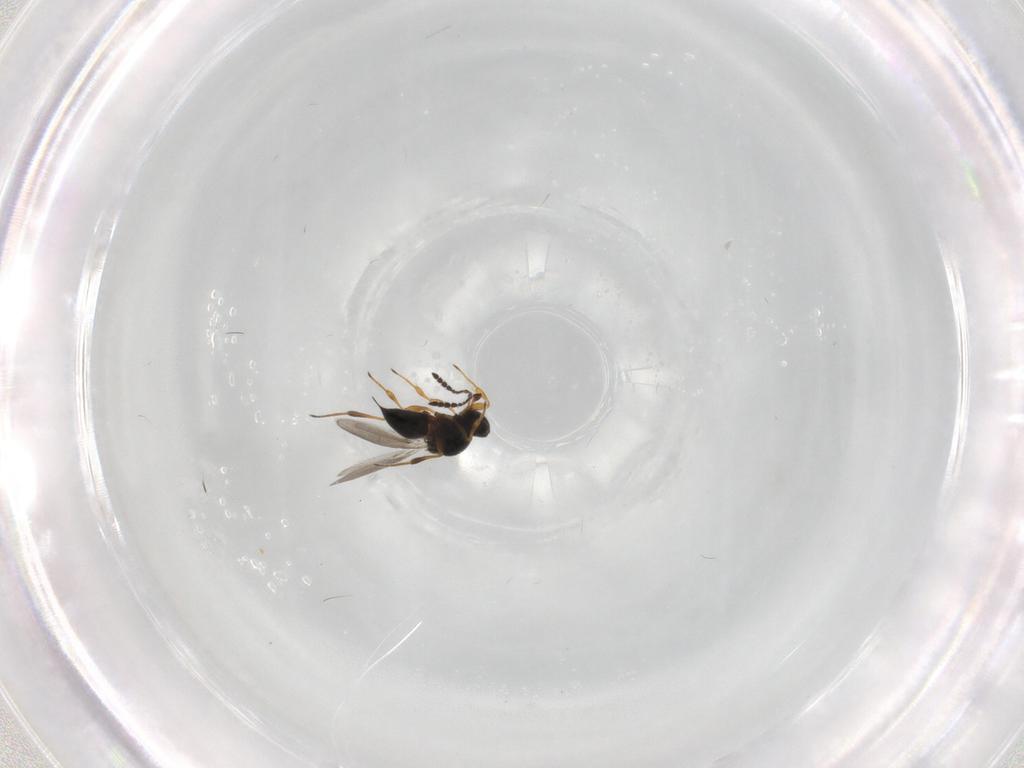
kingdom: Animalia
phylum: Arthropoda
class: Insecta
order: Hymenoptera
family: Platygastridae
